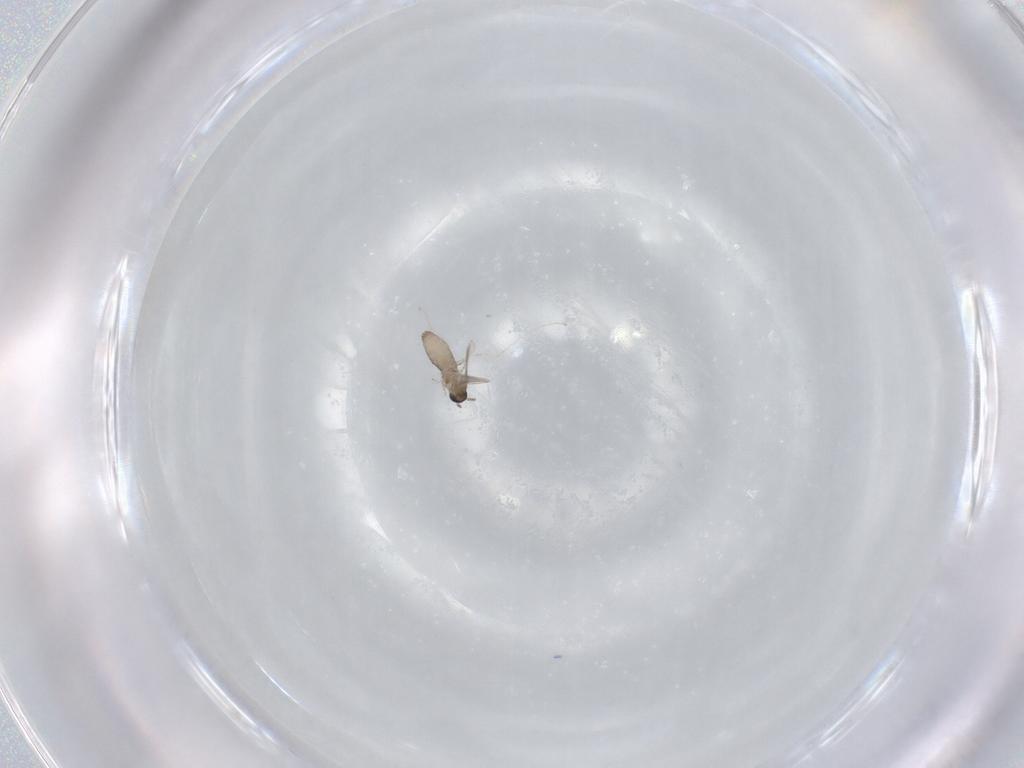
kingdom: Animalia
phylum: Arthropoda
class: Insecta
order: Diptera
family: Cecidomyiidae
